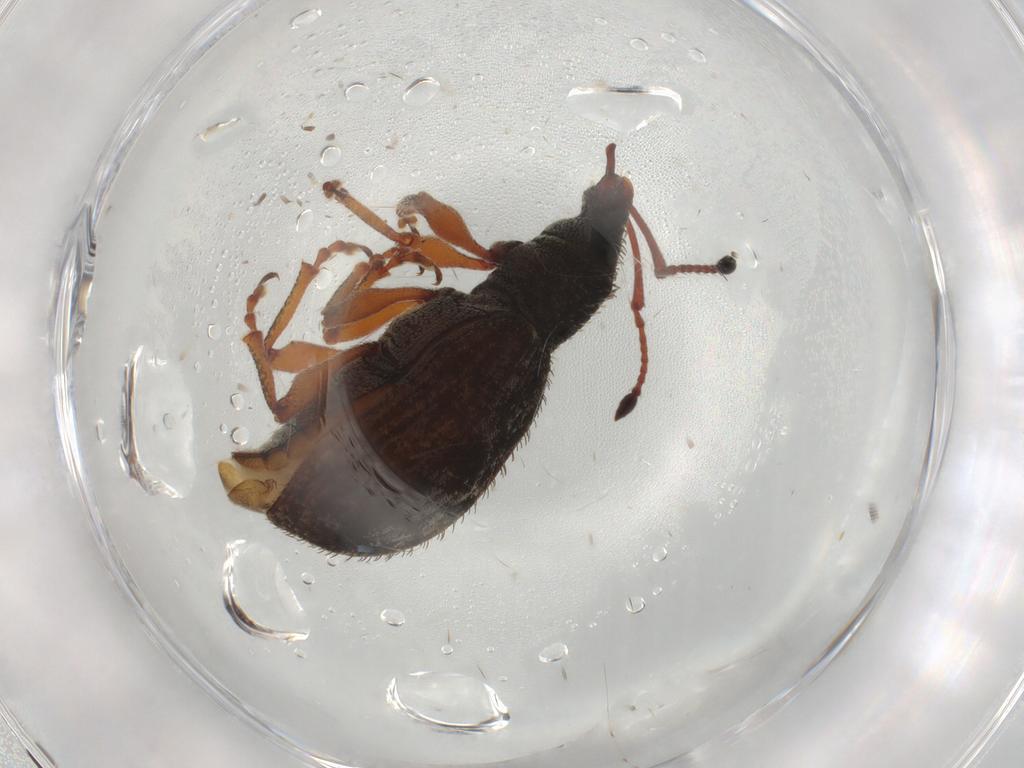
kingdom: Animalia
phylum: Arthropoda
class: Insecta
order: Coleoptera
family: Curculionidae
